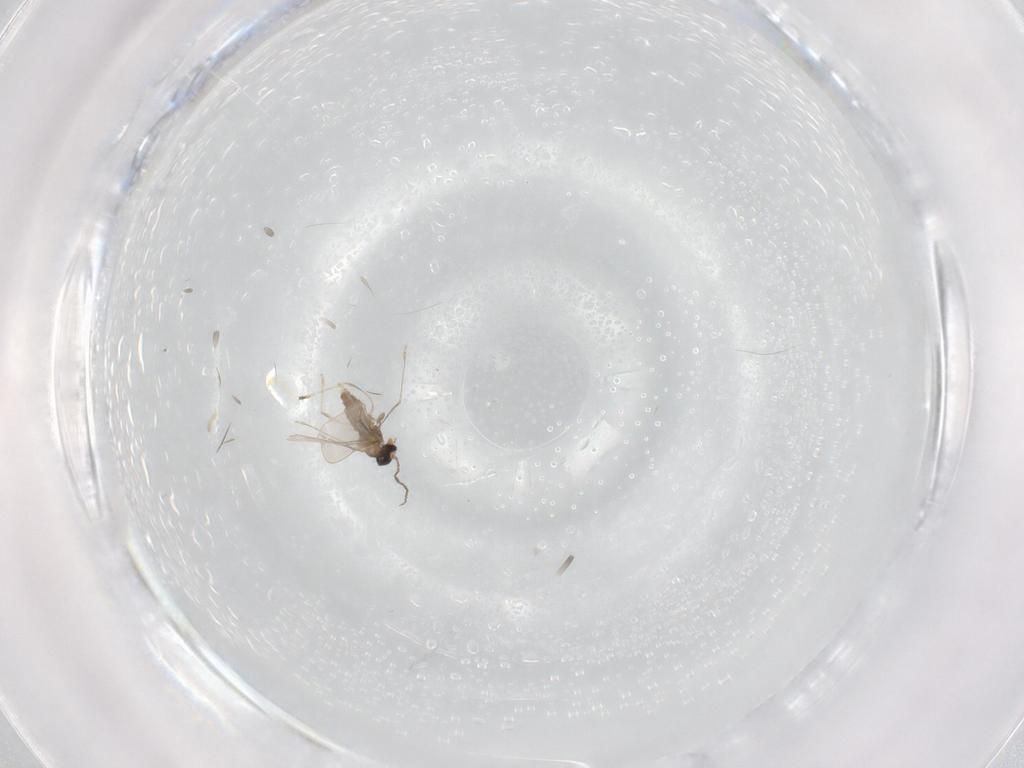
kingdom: Animalia
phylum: Arthropoda
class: Insecta
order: Diptera
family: Cecidomyiidae
